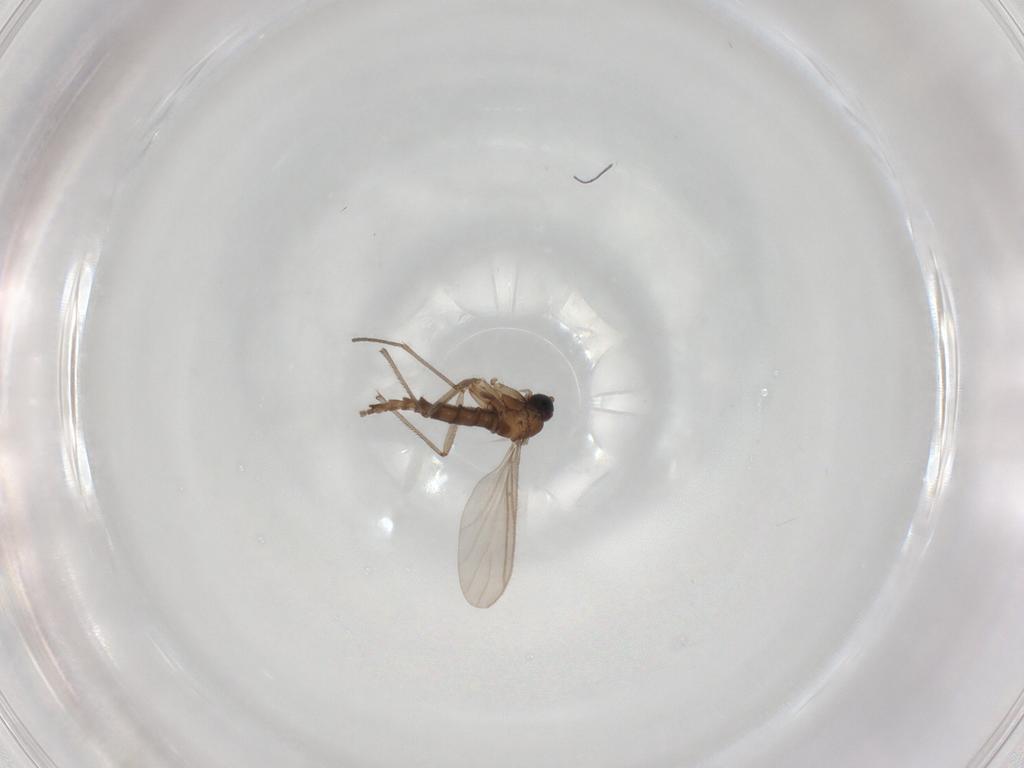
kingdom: Animalia
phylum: Arthropoda
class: Insecta
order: Diptera
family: Sciaridae
